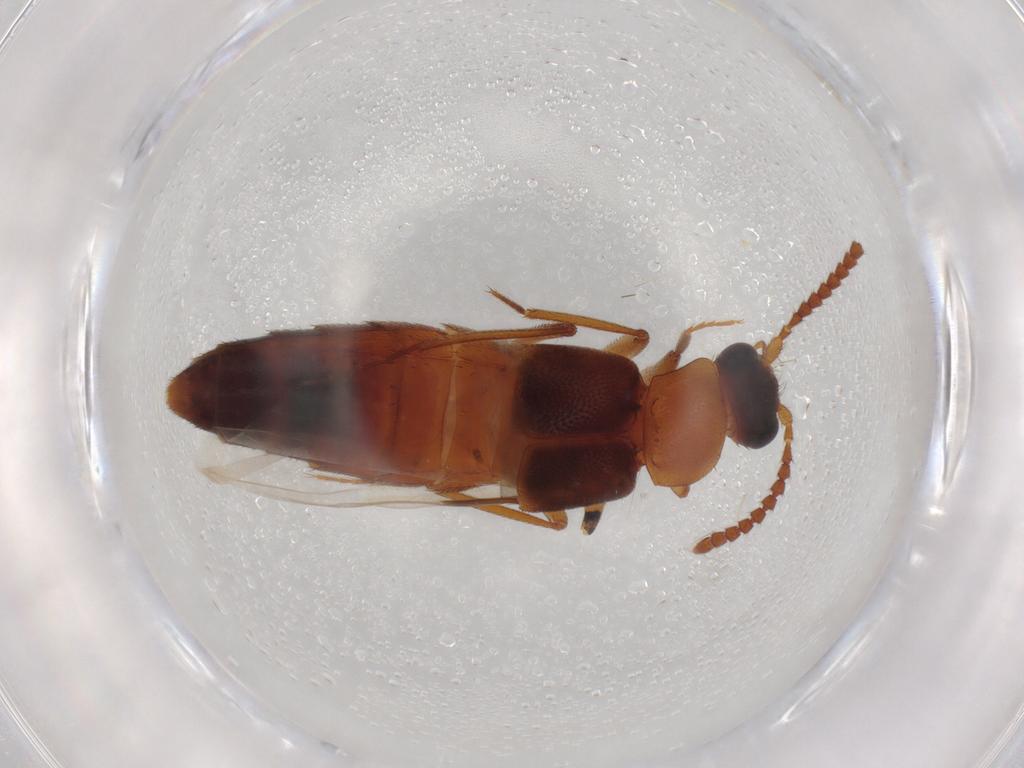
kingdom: Animalia
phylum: Arthropoda
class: Insecta
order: Coleoptera
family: Staphylinidae
